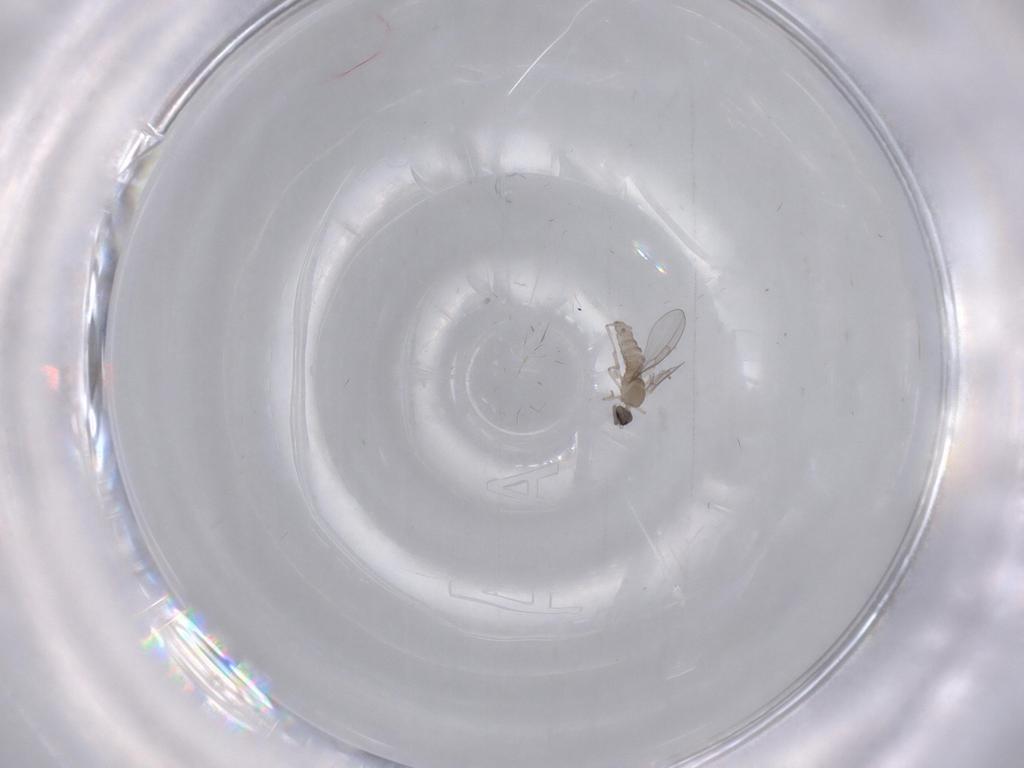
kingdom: Animalia
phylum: Arthropoda
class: Insecta
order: Diptera
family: Cecidomyiidae
